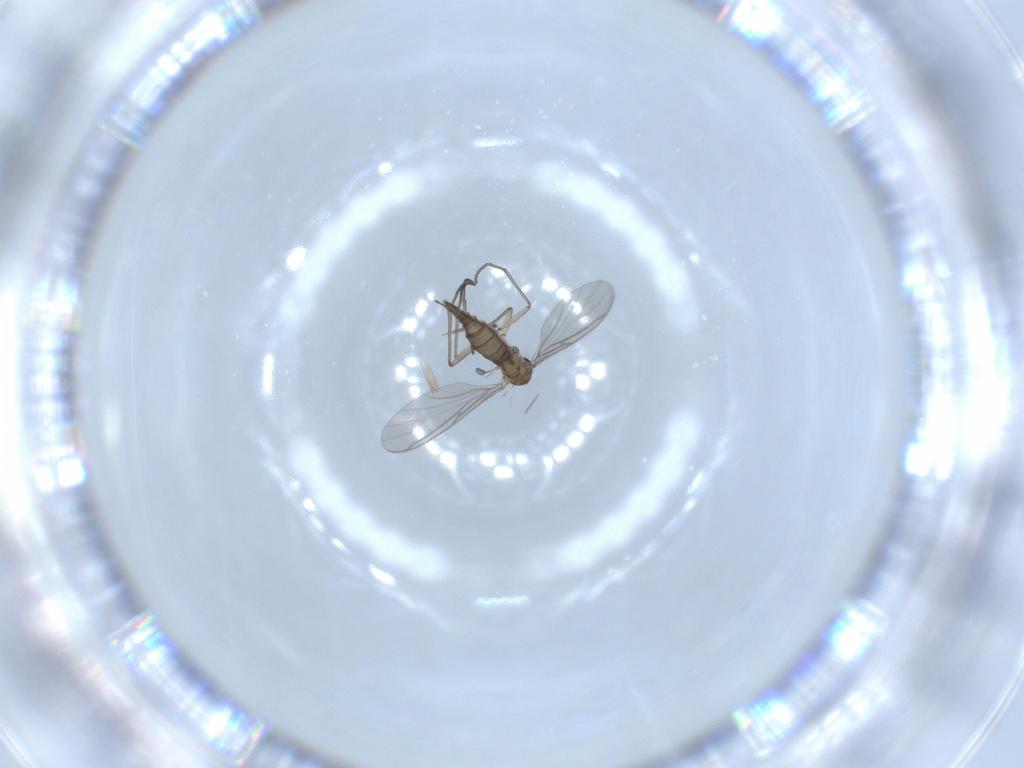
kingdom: Animalia
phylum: Arthropoda
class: Insecta
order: Diptera
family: Sciaridae
